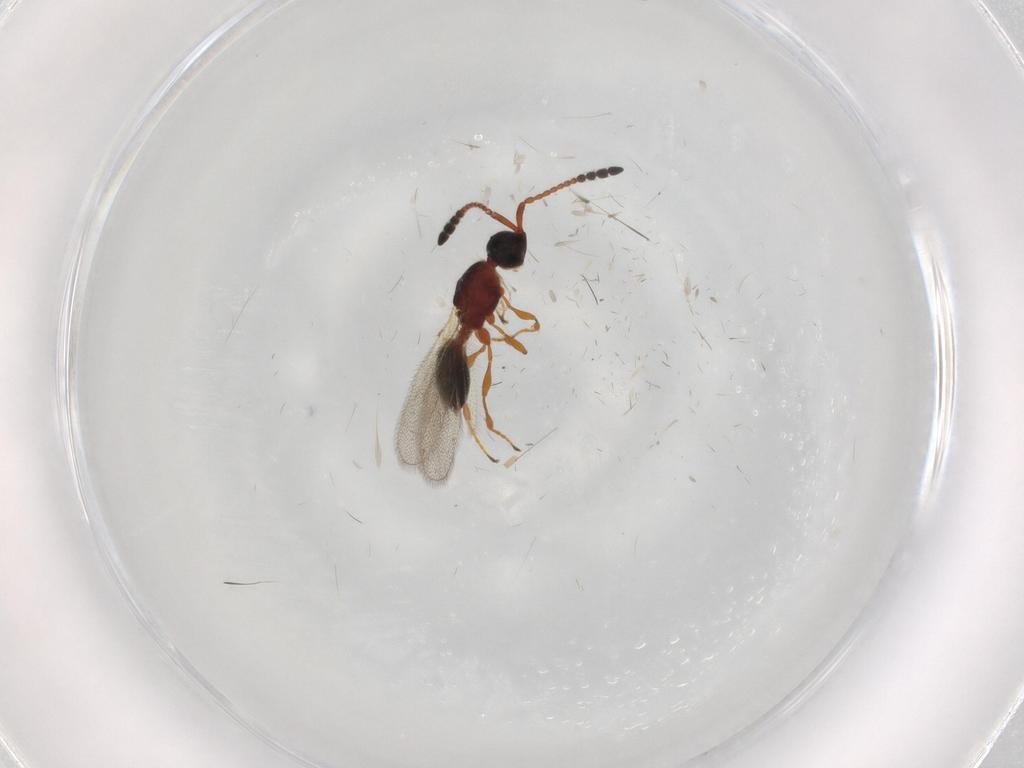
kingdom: Animalia
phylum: Arthropoda
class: Insecta
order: Hymenoptera
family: Diapriidae
